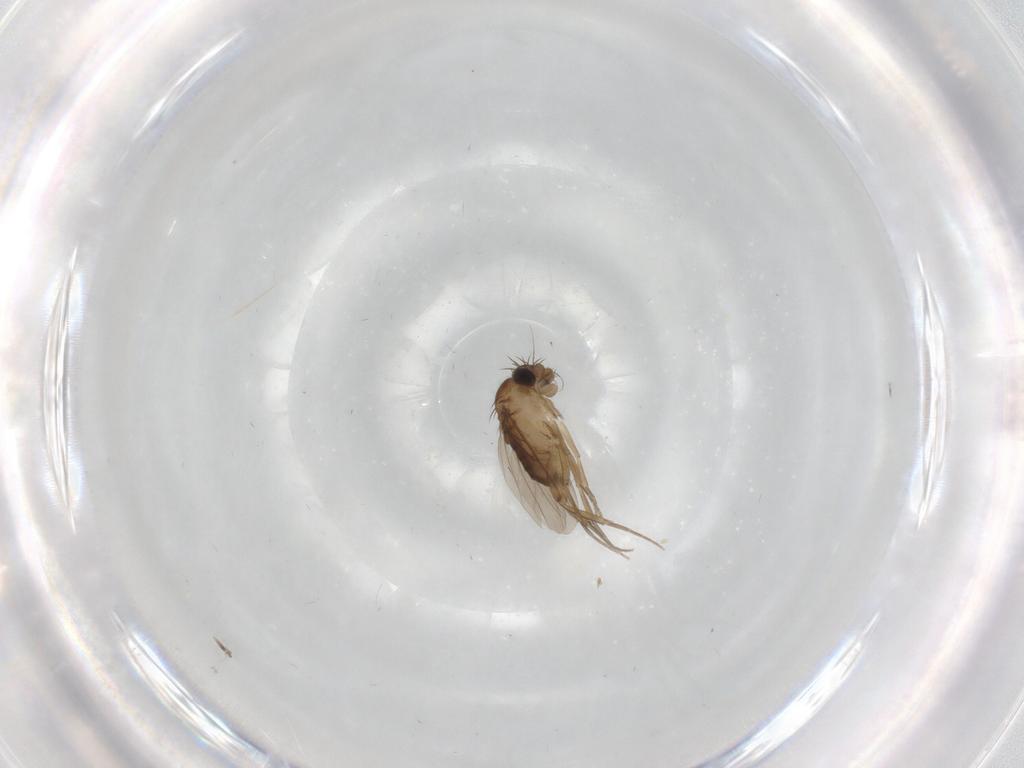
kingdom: Animalia
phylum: Arthropoda
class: Insecta
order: Diptera
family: Phoridae
